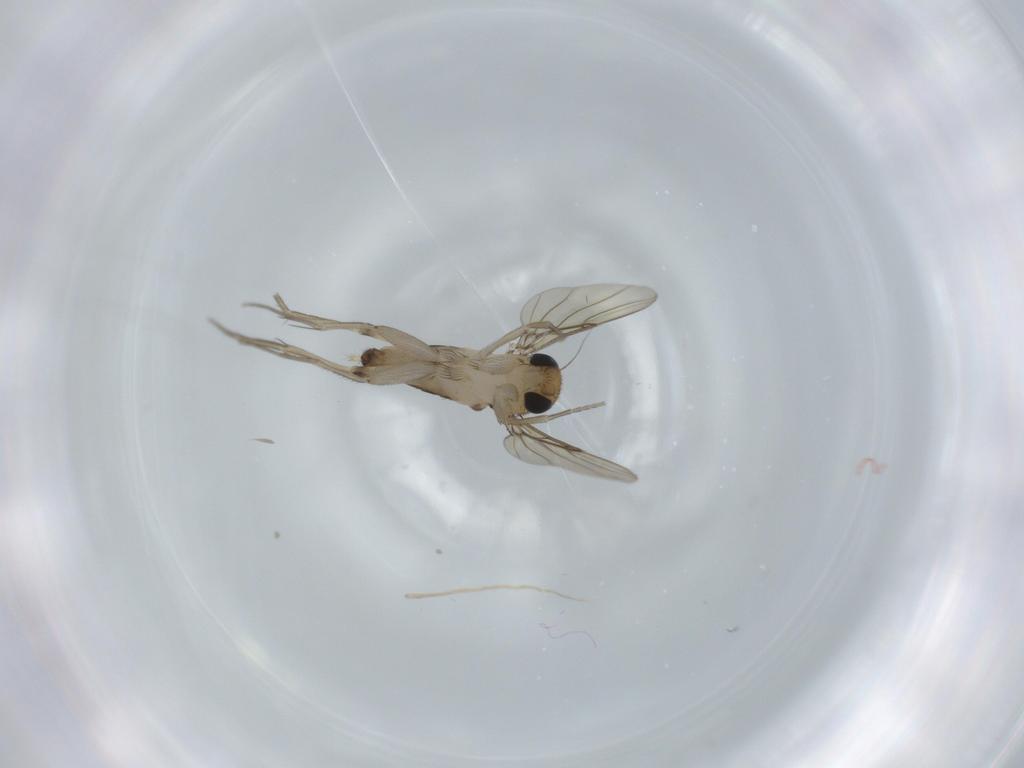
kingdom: Animalia
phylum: Arthropoda
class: Insecta
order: Diptera
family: Phoridae
